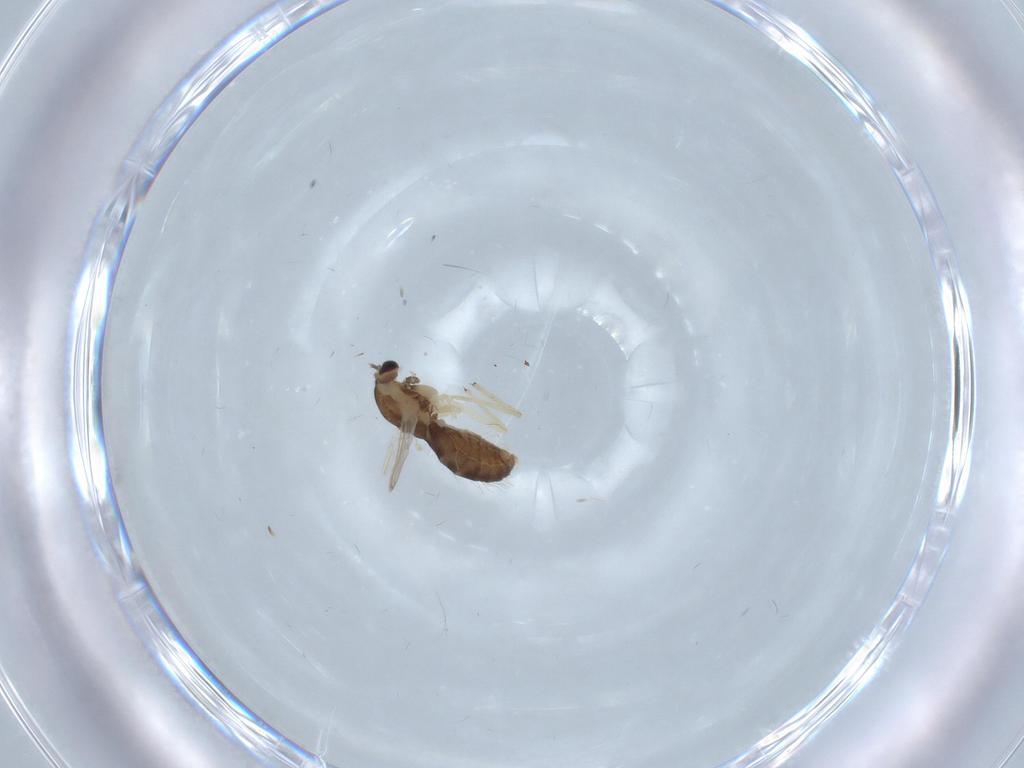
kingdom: Animalia
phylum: Arthropoda
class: Insecta
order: Diptera
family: Chironomidae
